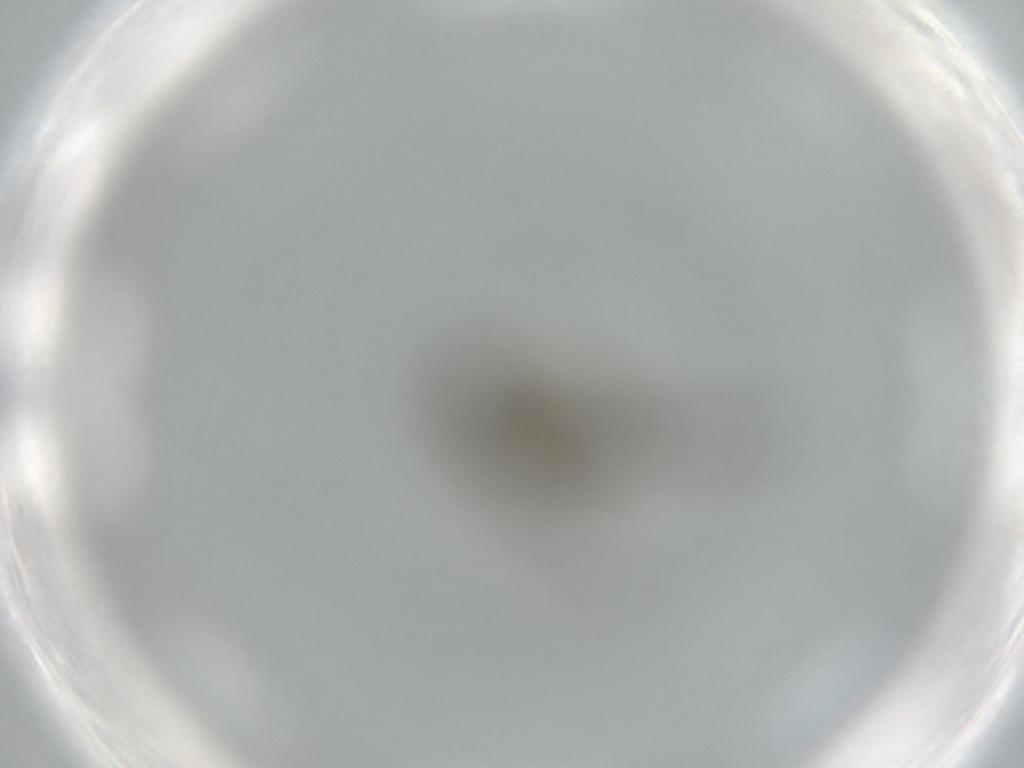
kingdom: Animalia
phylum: Arthropoda
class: Insecta
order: Diptera
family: Phoridae
